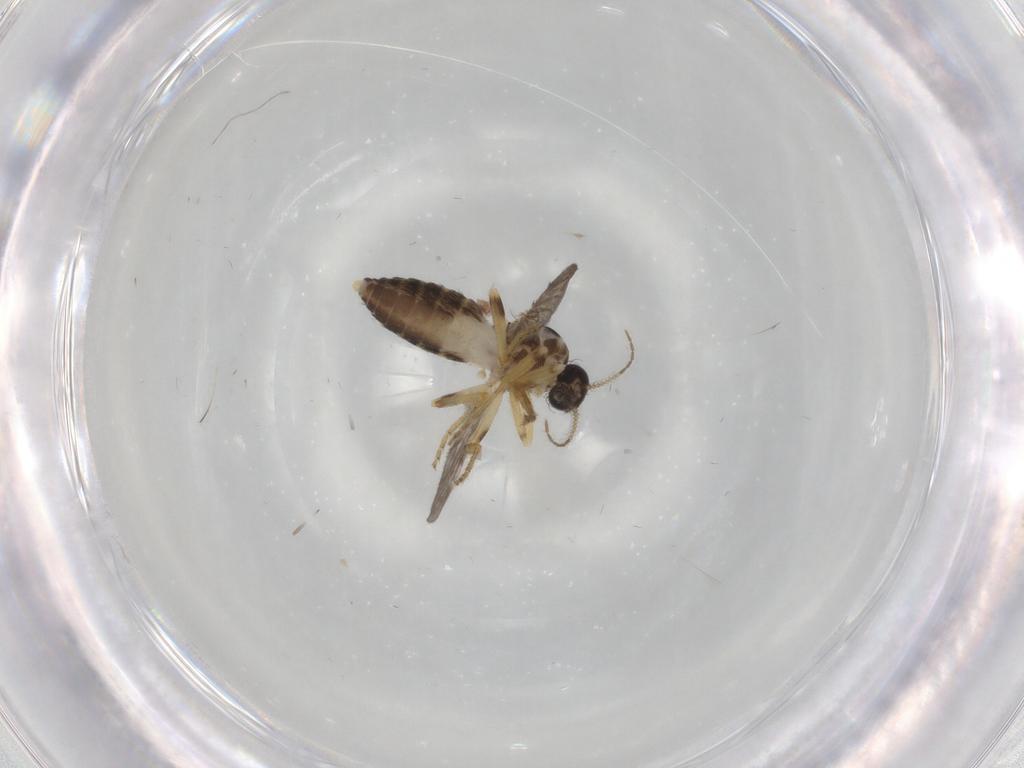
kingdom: Animalia
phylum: Arthropoda
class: Insecta
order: Diptera
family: Ceratopogonidae
